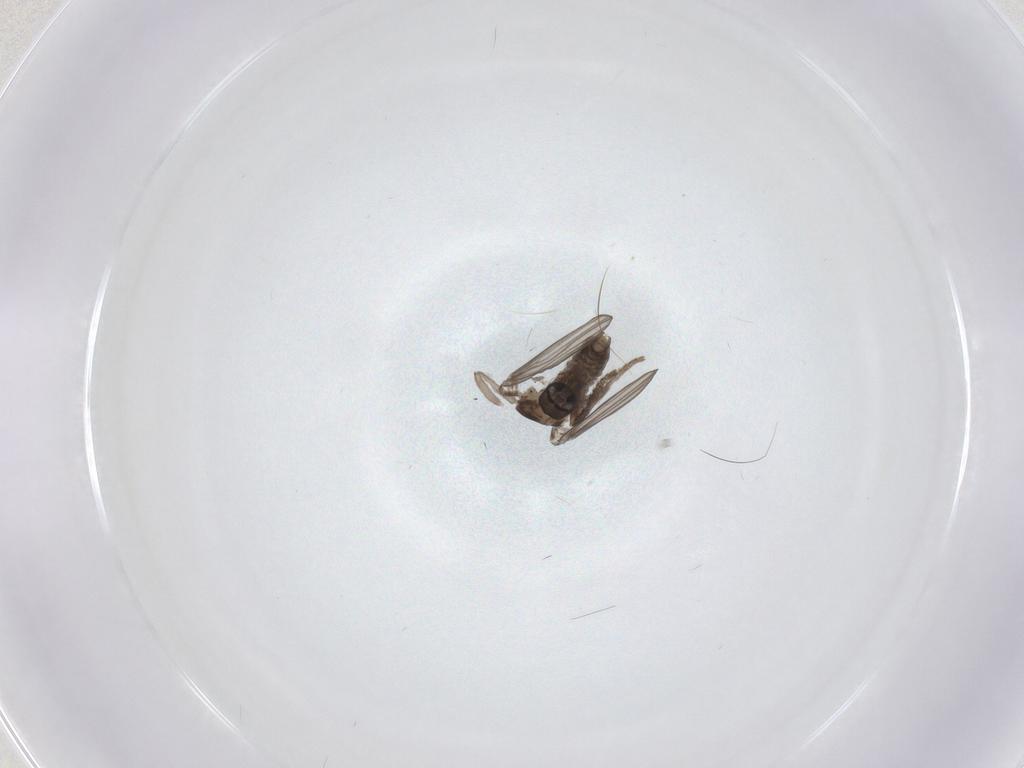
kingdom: Animalia
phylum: Arthropoda
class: Insecta
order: Diptera
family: Psychodidae
